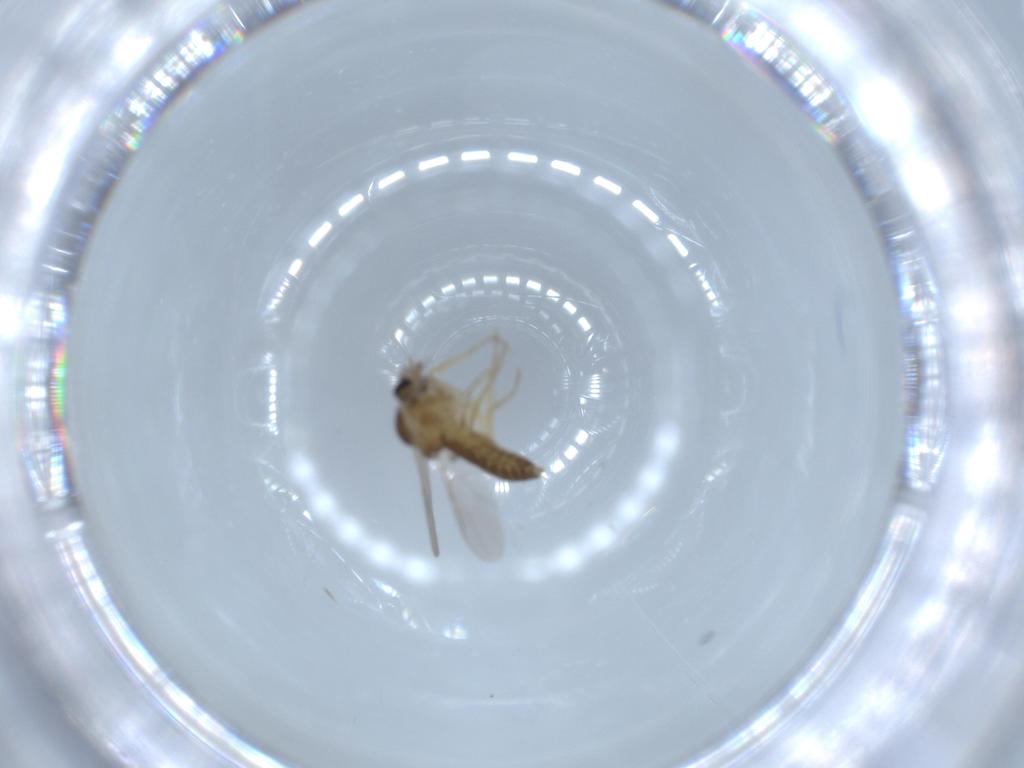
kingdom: Animalia
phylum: Arthropoda
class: Insecta
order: Diptera
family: Ceratopogonidae
